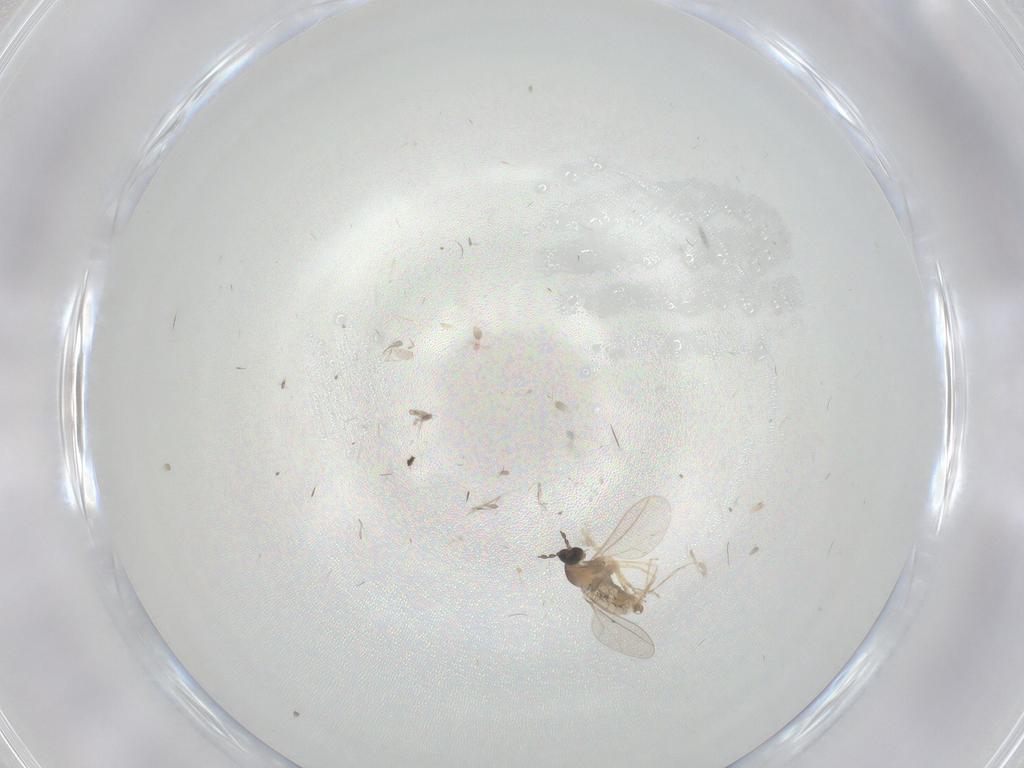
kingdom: Animalia
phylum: Arthropoda
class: Insecta
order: Diptera
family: Cecidomyiidae
